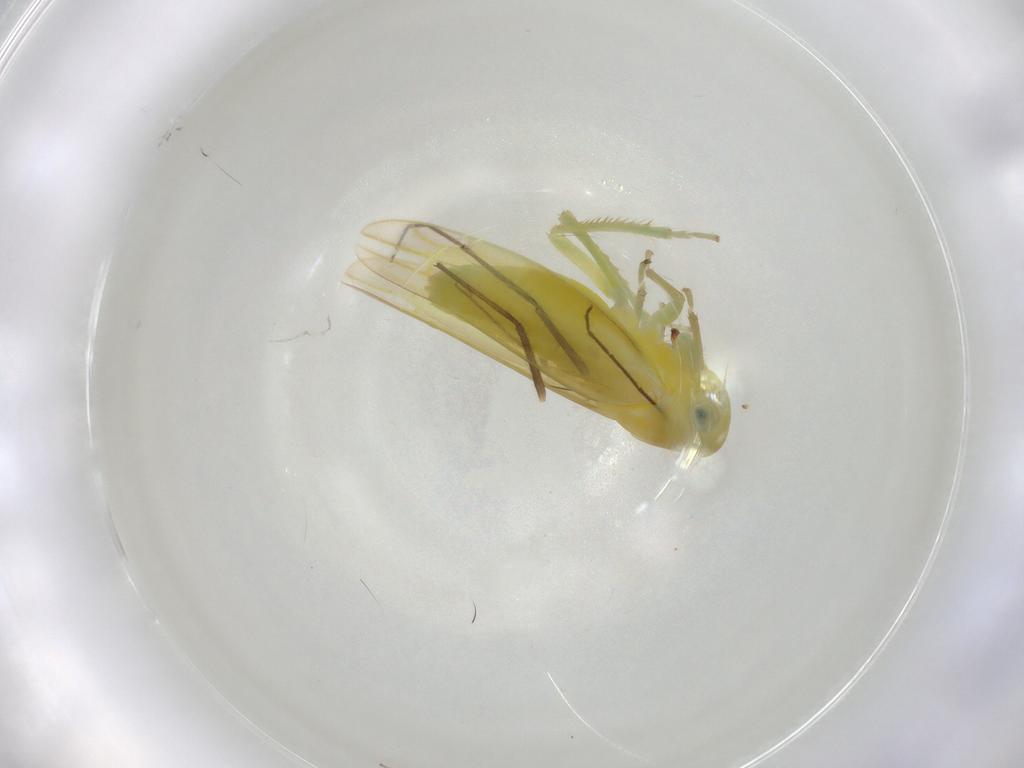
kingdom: Animalia
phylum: Arthropoda
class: Insecta
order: Hemiptera
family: Cicadellidae
